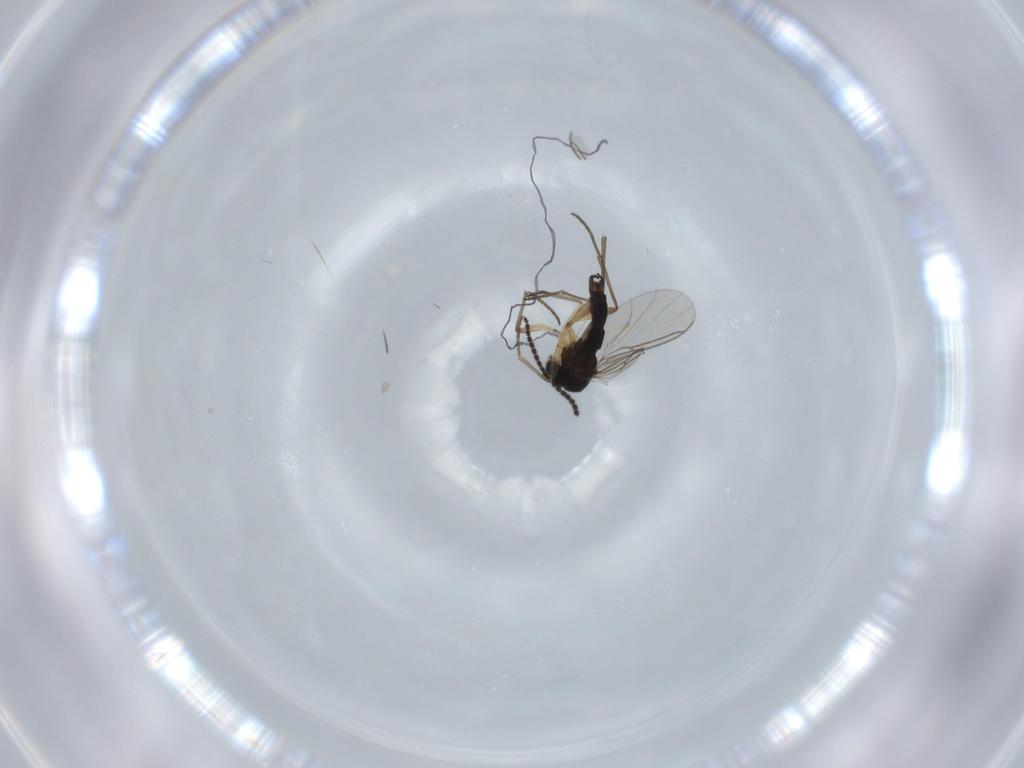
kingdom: Animalia
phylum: Arthropoda
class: Insecta
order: Diptera
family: Sciaridae
